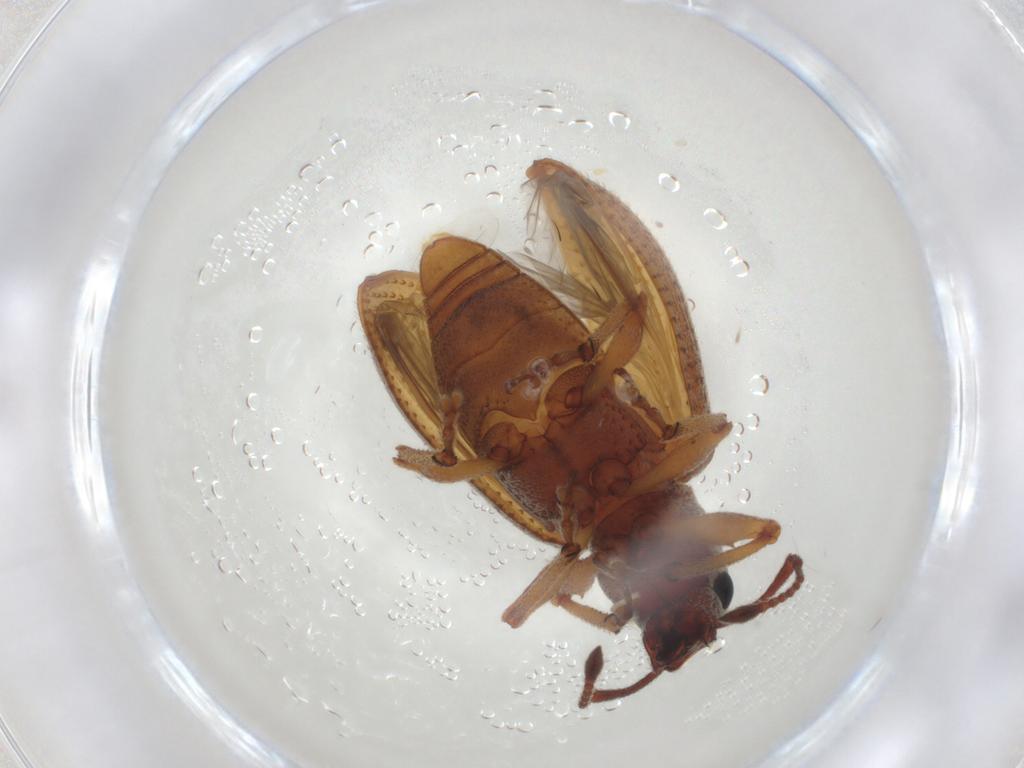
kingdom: Animalia
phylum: Arthropoda
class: Insecta
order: Coleoptera
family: Curculionidae
